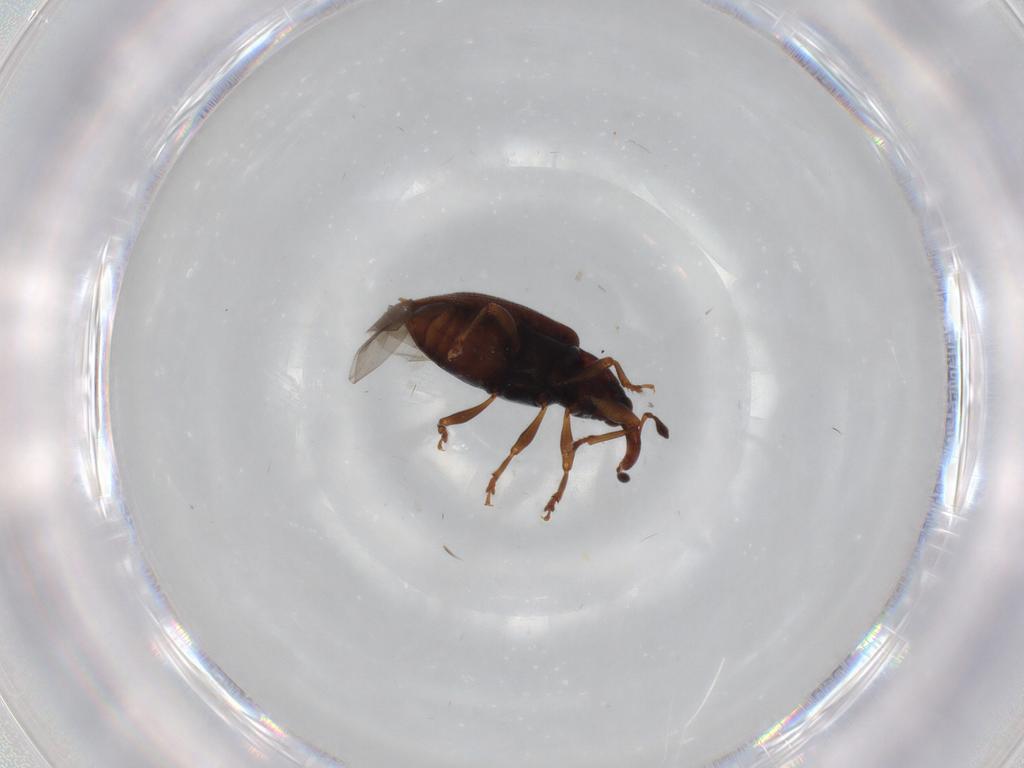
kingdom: Animalia
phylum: Arthropoda
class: Insecta
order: Coleoptera
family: Curculionidae
